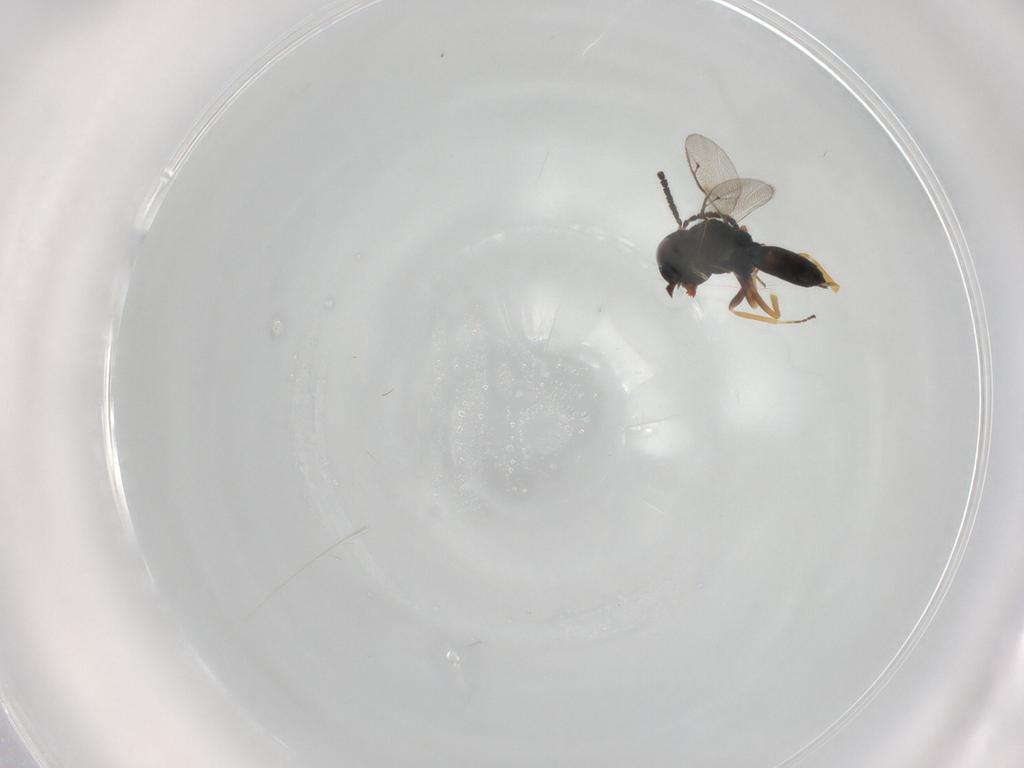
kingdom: Animalia
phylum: Arthropoda
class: Insecta
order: Hymenoptera
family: Pteromalidae
